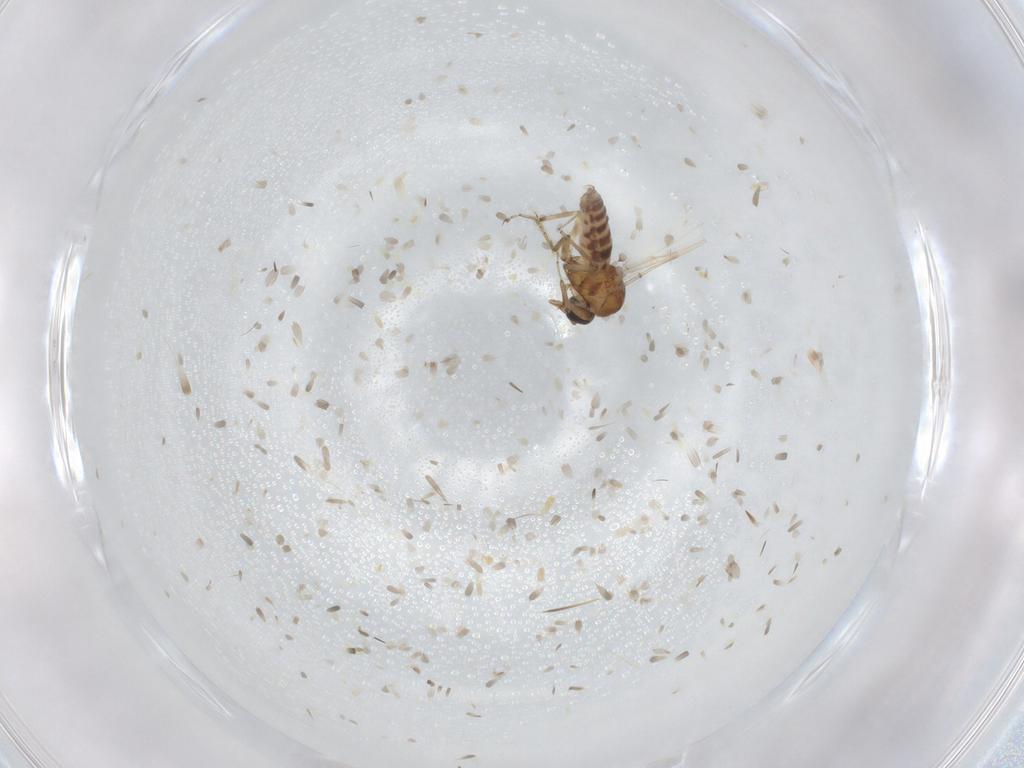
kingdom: Animalia
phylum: Arthropoda
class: Insecta
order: Diptera
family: Ceratopogonidae
